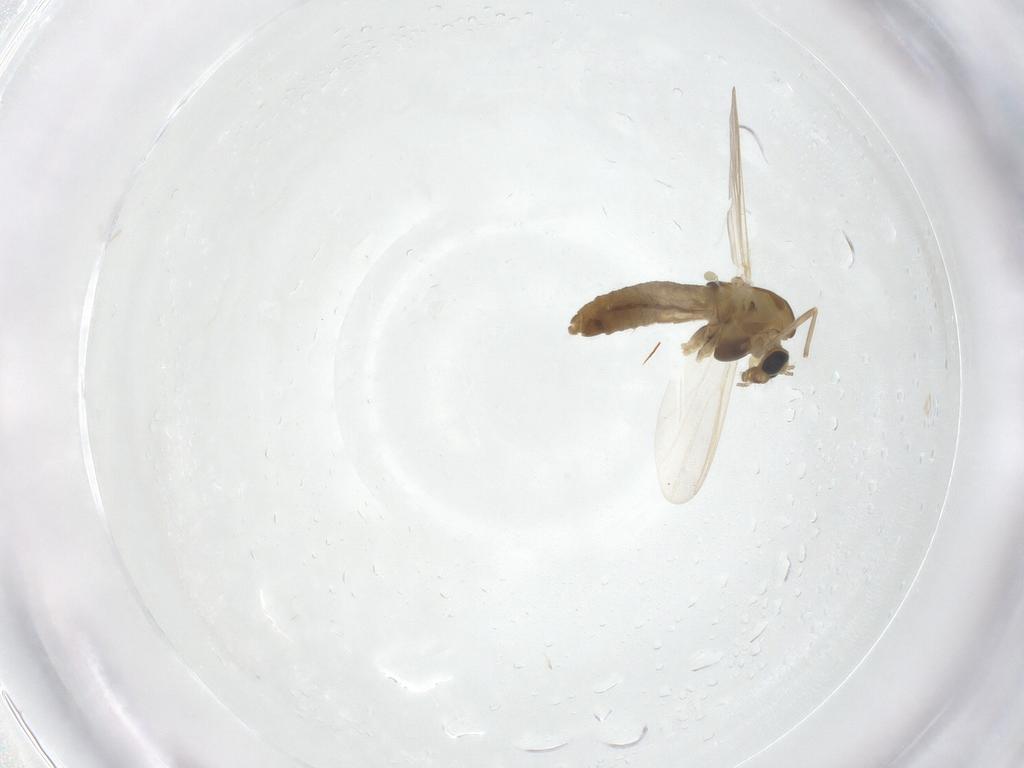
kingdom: Animalia
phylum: Arthropoda
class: Insecta
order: Diptera
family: Chironomidae
